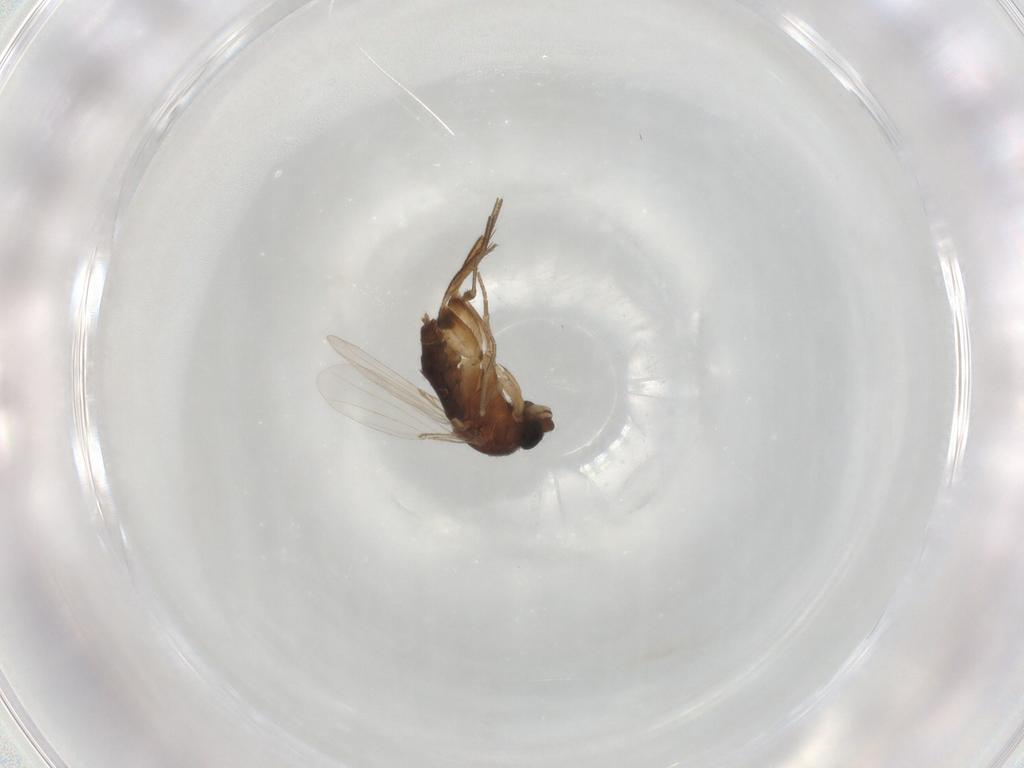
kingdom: Animalia
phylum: Arthropoda
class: Insecta
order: Diptera
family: Phoridae
